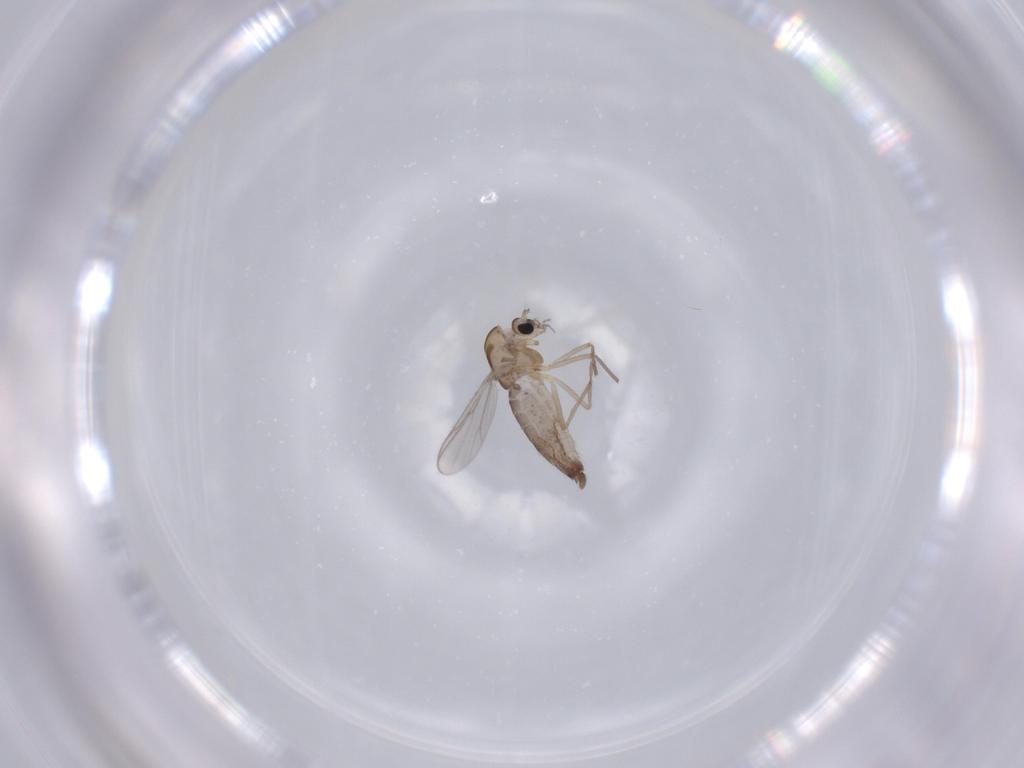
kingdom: Animalia
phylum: Arthropoda
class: Insecta
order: Diptera
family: Chironomidae
